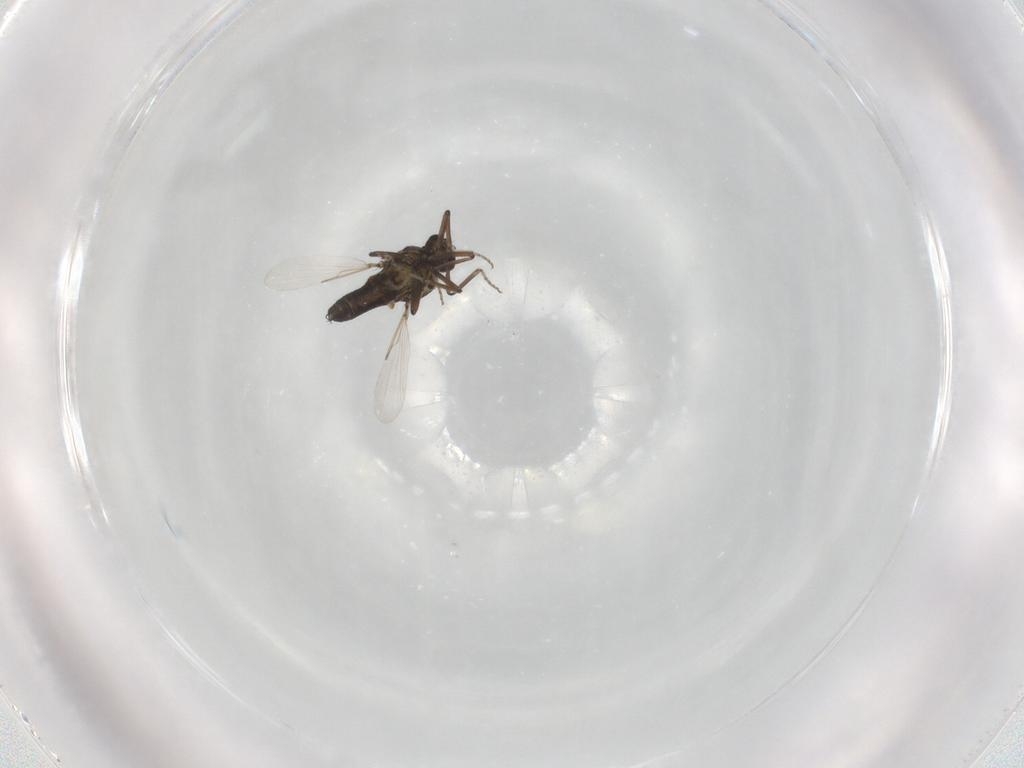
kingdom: Animalia
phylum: Arthropoda
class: Insecta
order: Diptera
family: Ceratopogonidae
